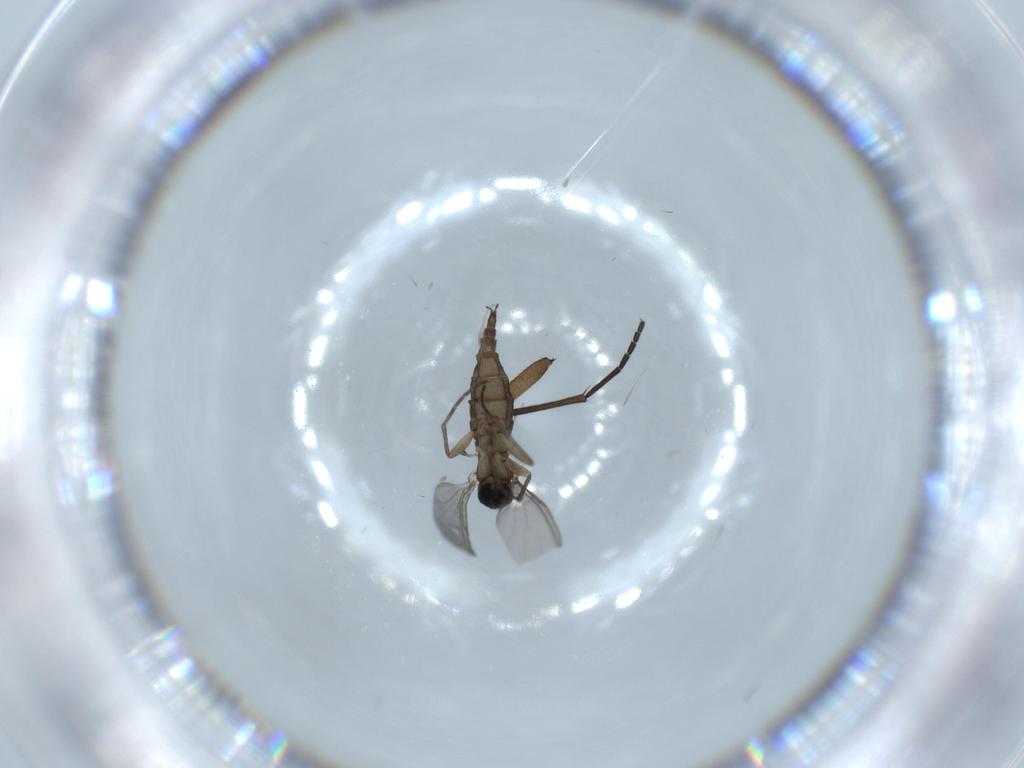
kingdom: Animalia
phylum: Arthropoda
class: Insecta
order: Diptera
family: Sciaridae
